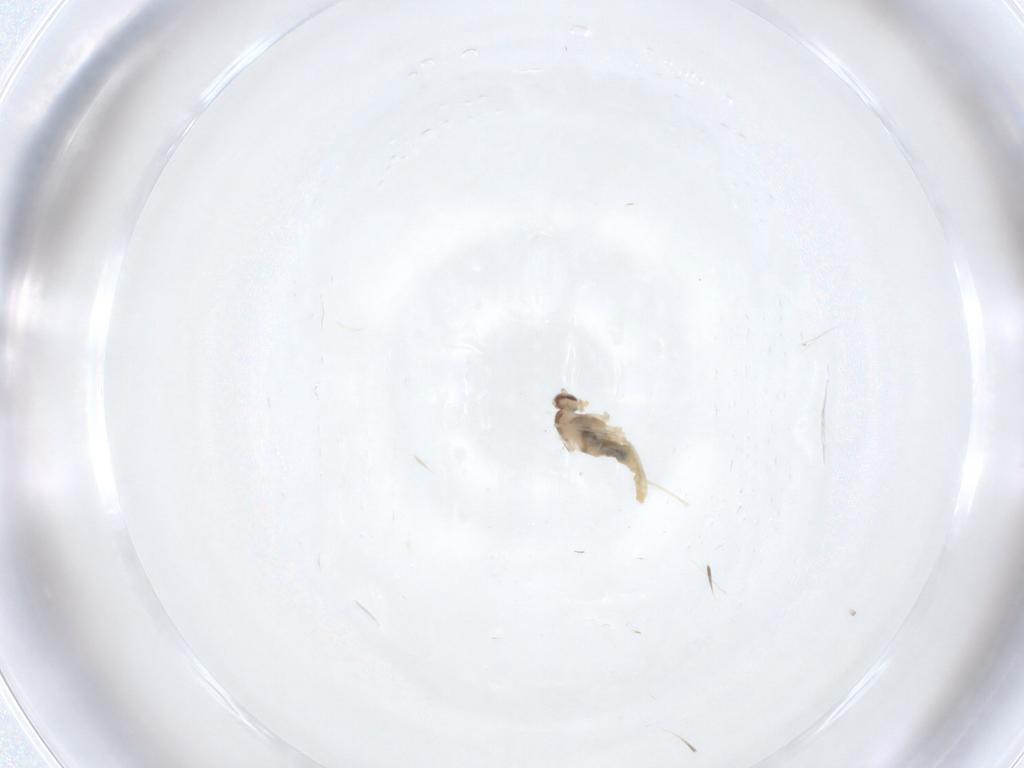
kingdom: Animalia
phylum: Arthropoda
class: Insecta
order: Diptera
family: Cecidomyiidae
